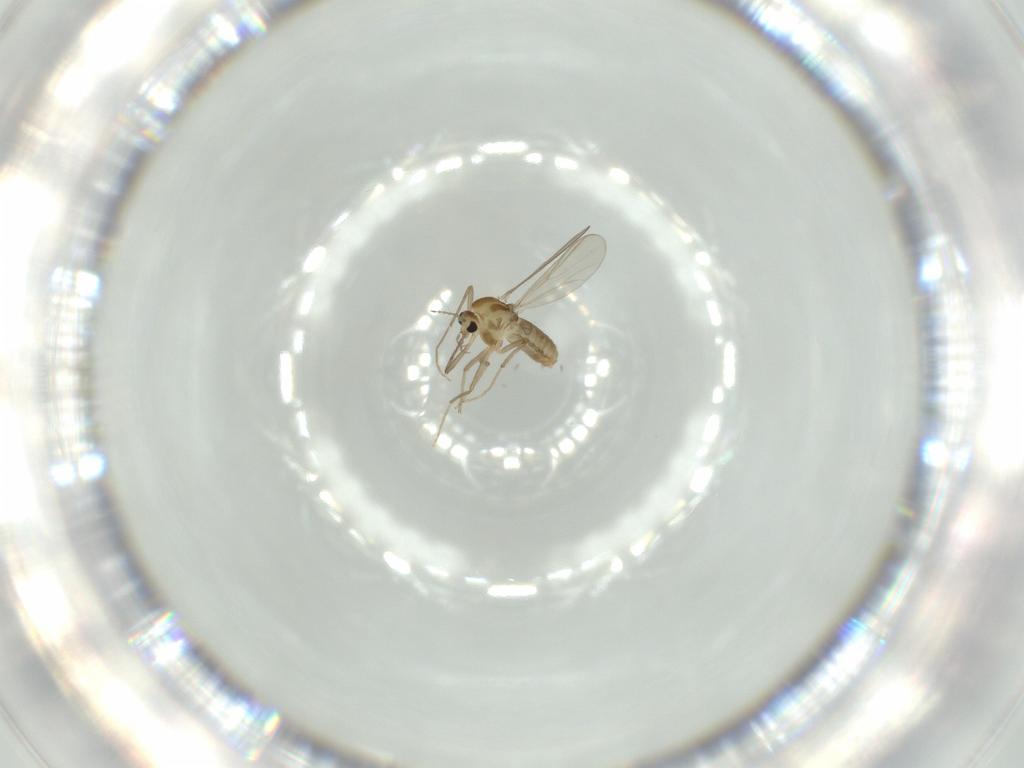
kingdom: Animalia
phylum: Arthropoda
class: Insecta
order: Diptera
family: Chironomidae
